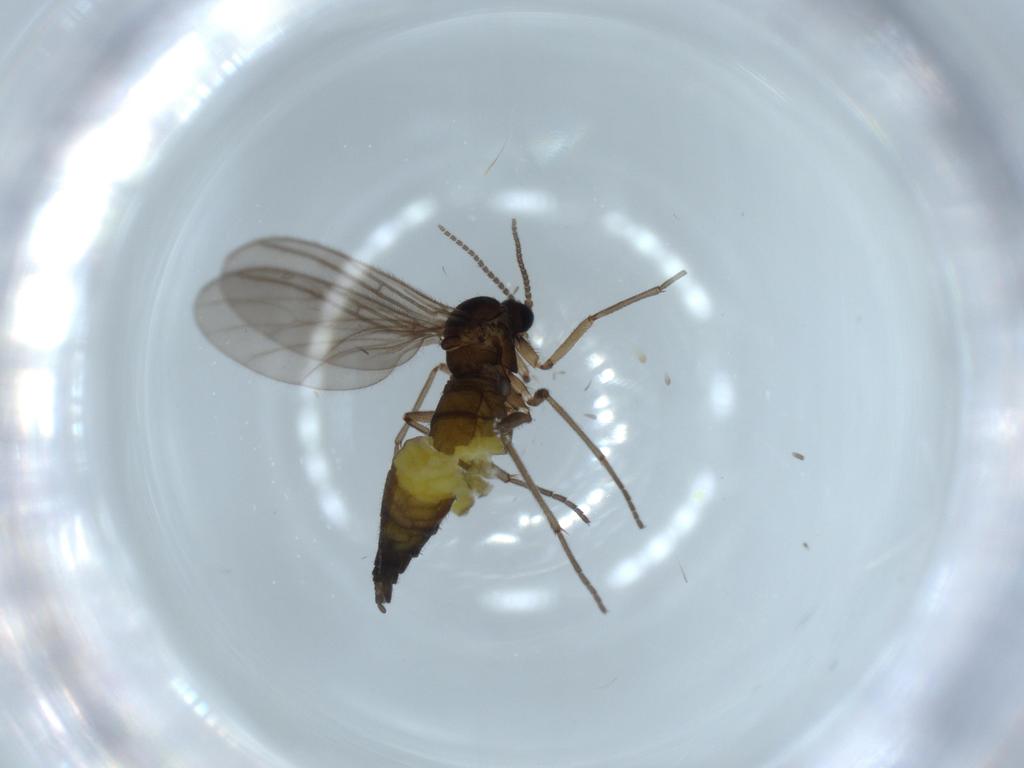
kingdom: Animalia
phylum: Arthropoda
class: Insecta
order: Diptera
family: Sciaridae
